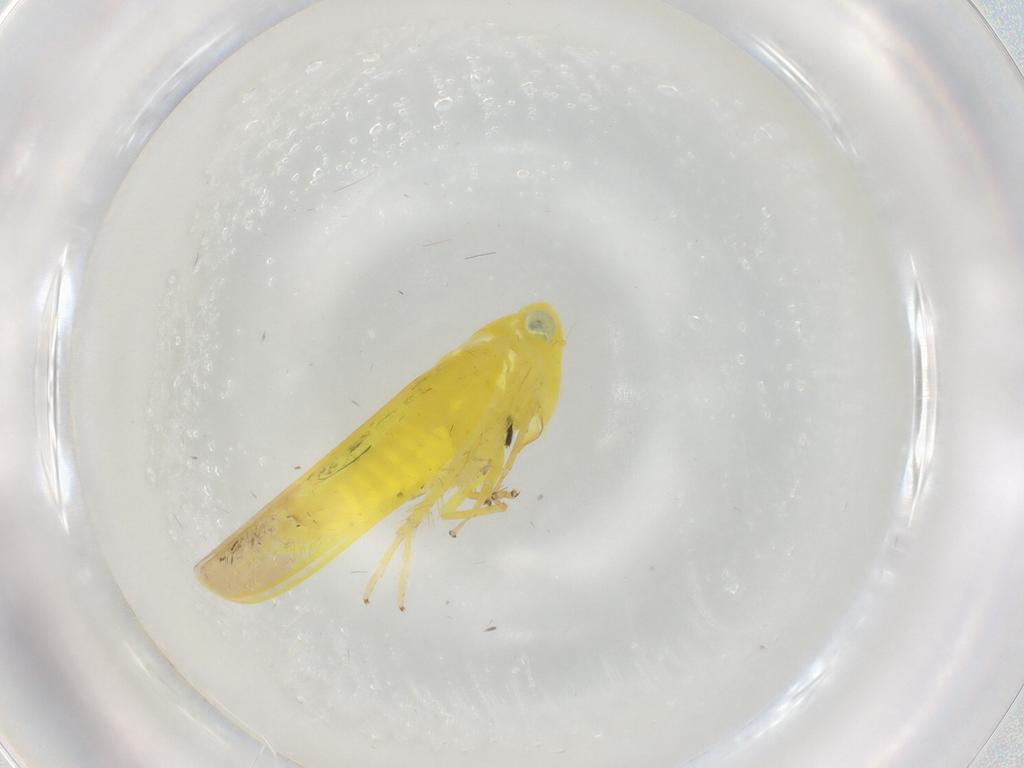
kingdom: Animalia
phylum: Arthropoda
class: Insecta
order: Hemiptera
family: Cicadellidae
